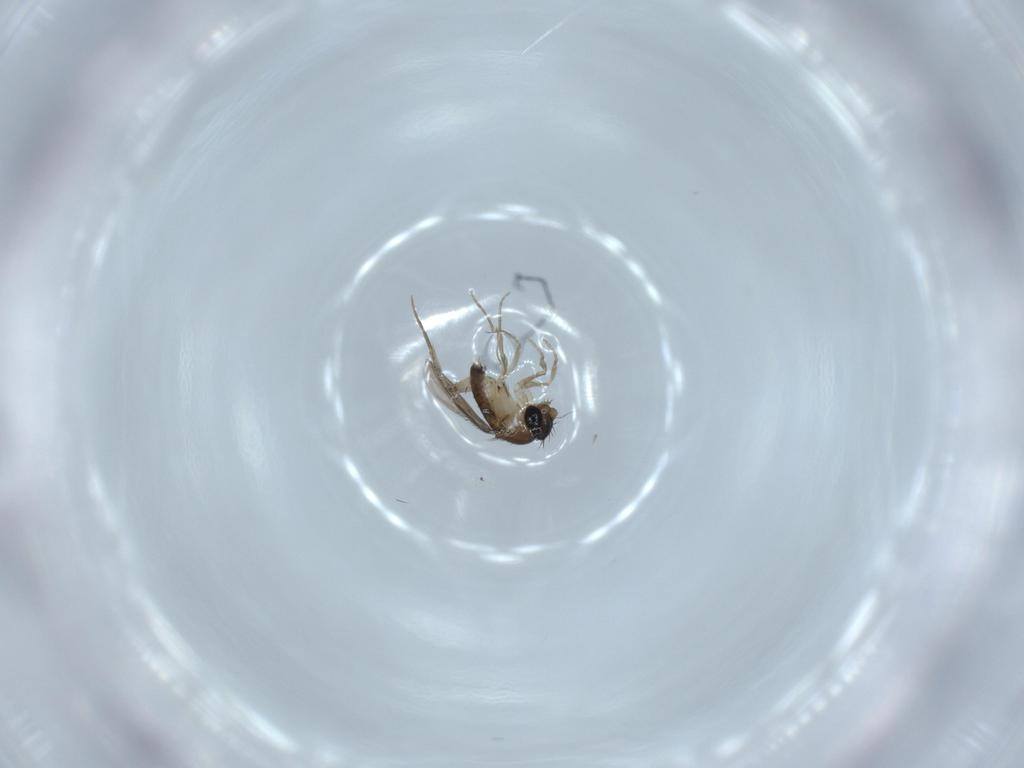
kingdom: Animalia
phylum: Arthropoda
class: Insecta
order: Diptera
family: Phoridae
